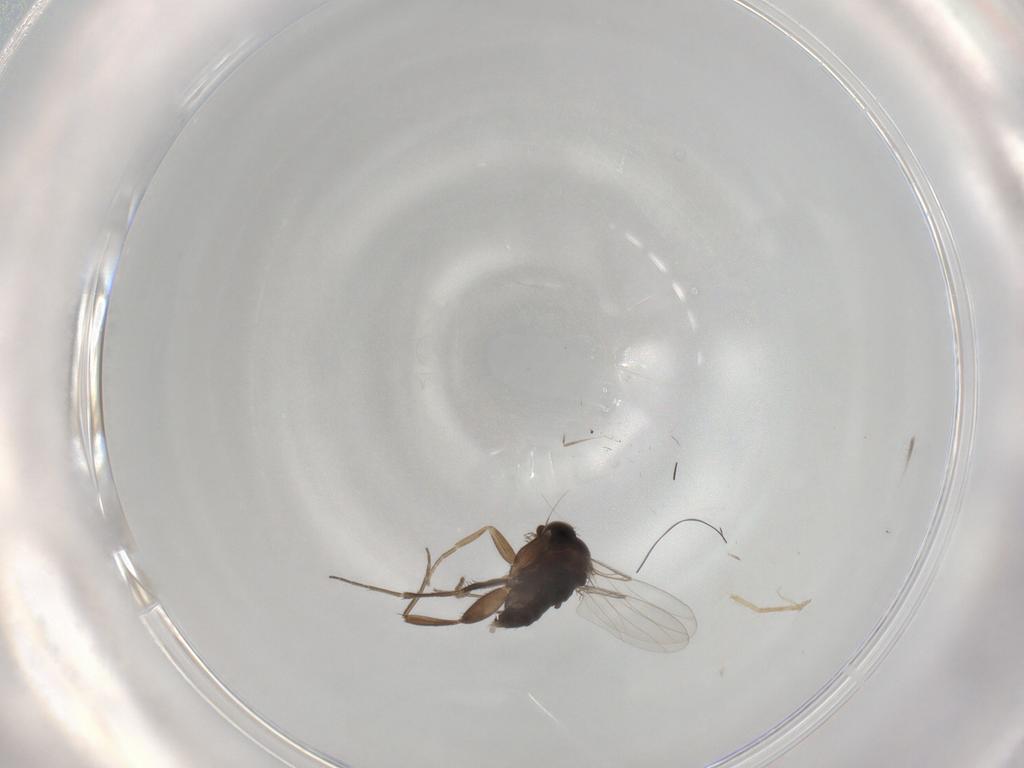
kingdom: Animalia
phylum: Arthropoda
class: Insecta
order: Diptera
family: Phoridae
